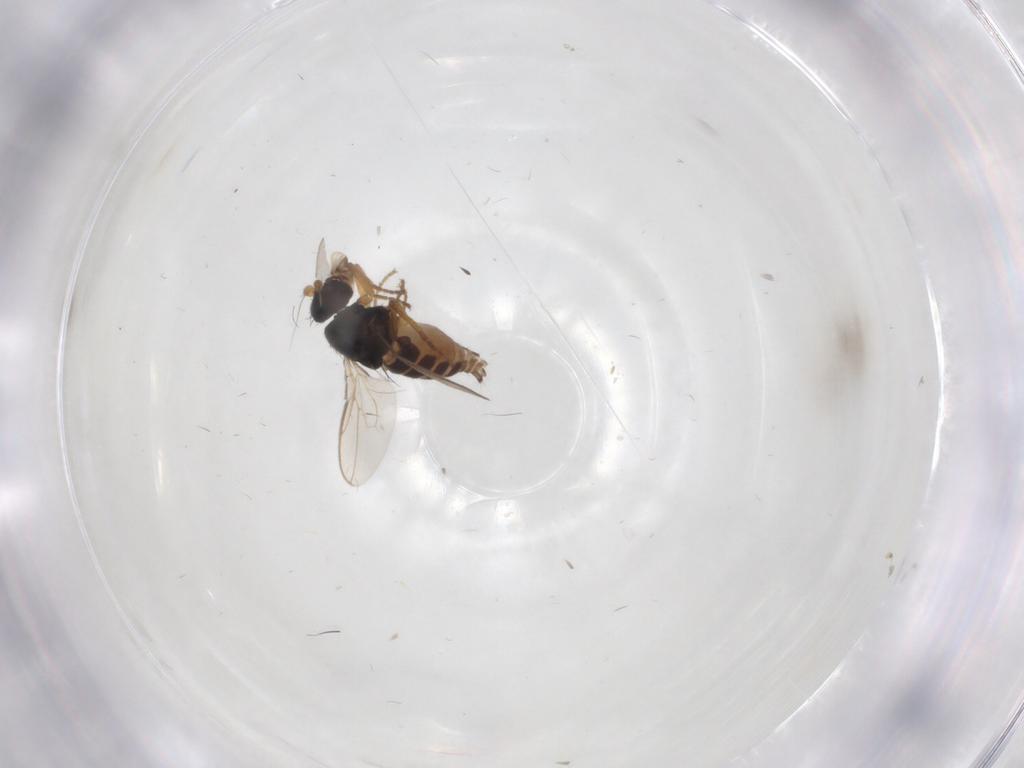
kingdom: Animalia
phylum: Arthropoda
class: Insecta
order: Diptera
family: Sphaeroceridae
